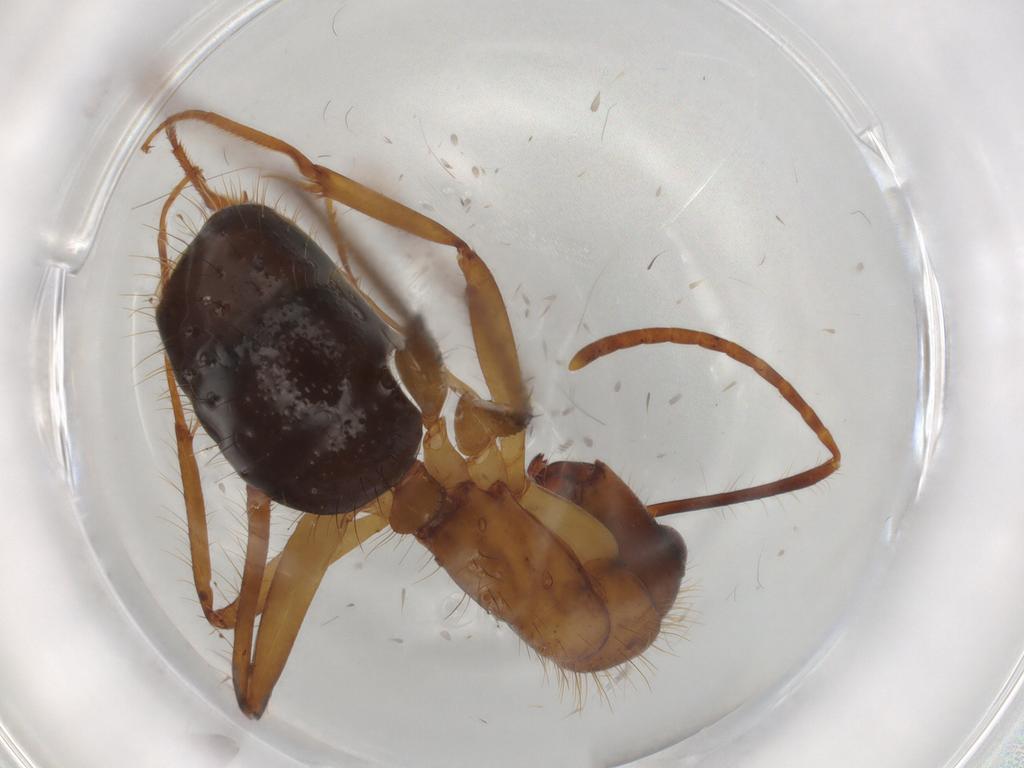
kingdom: Animalia
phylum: Arthropoda
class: Insecta
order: Hymenoptera
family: Formicidae
